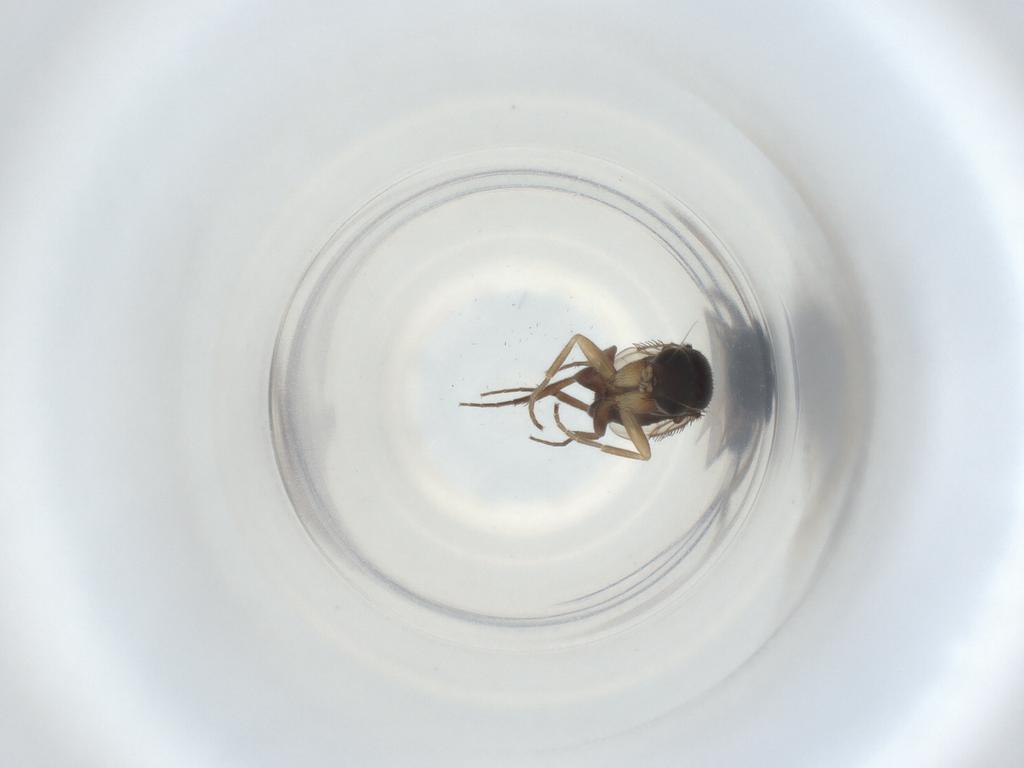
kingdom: Animalia
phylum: Arthropoda
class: Insecta
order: Diptera
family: Phoridae
